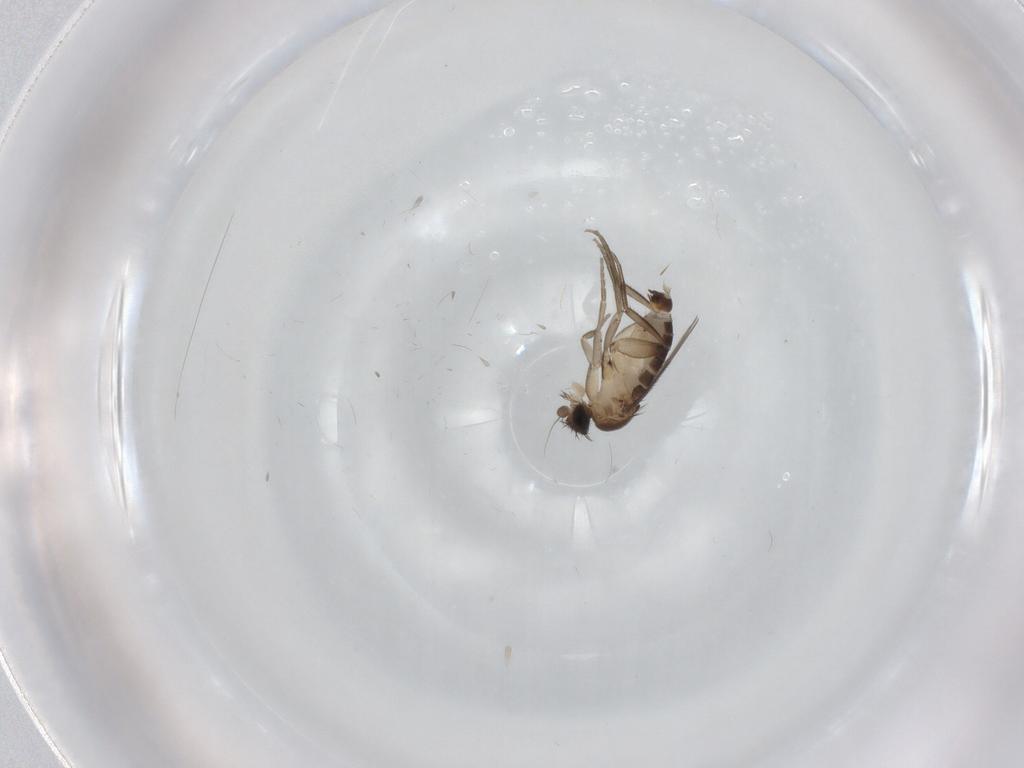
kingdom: Animalia
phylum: Arthropoda
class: Insecta
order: Diptera
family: Phoridae
